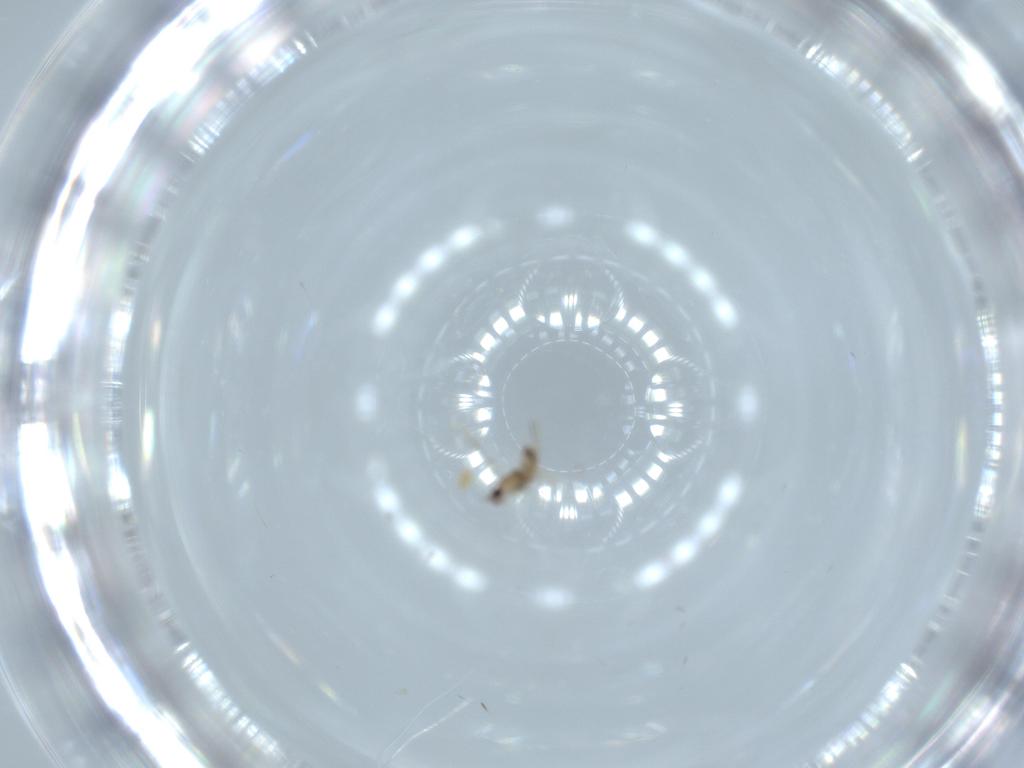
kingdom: Animalia
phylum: Arthropoda
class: Insecta
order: Hymenoptera
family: Mymaridae
